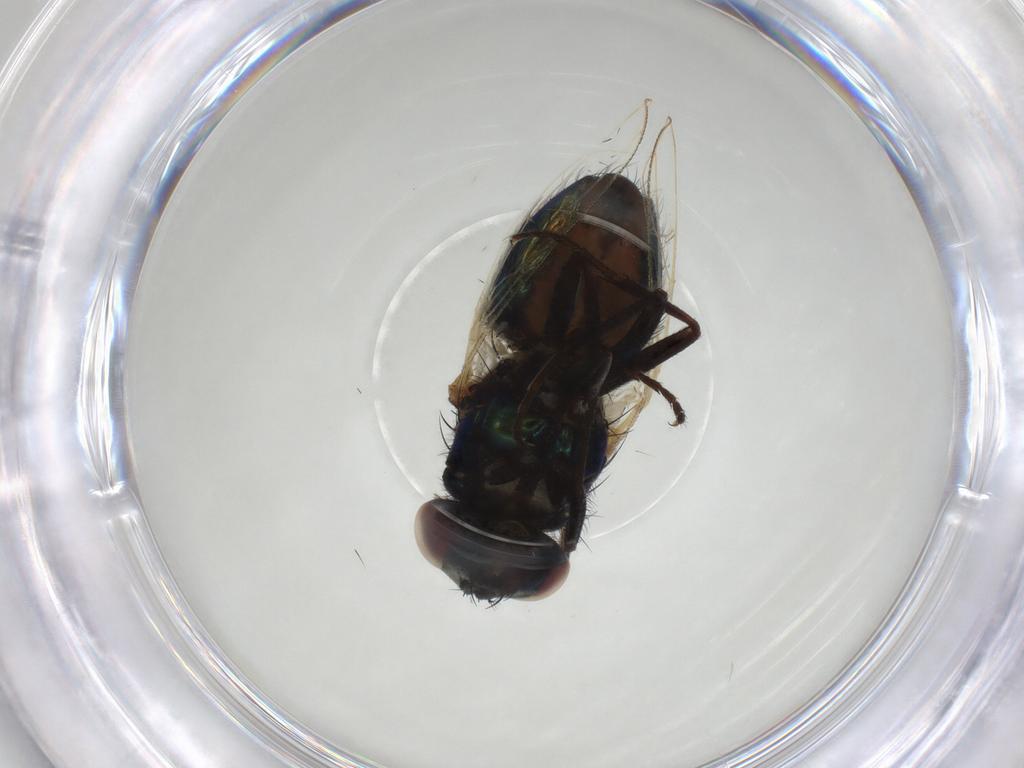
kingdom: Animalia
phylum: Arthropoda
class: Insecta
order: Diptera
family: Muscidae
